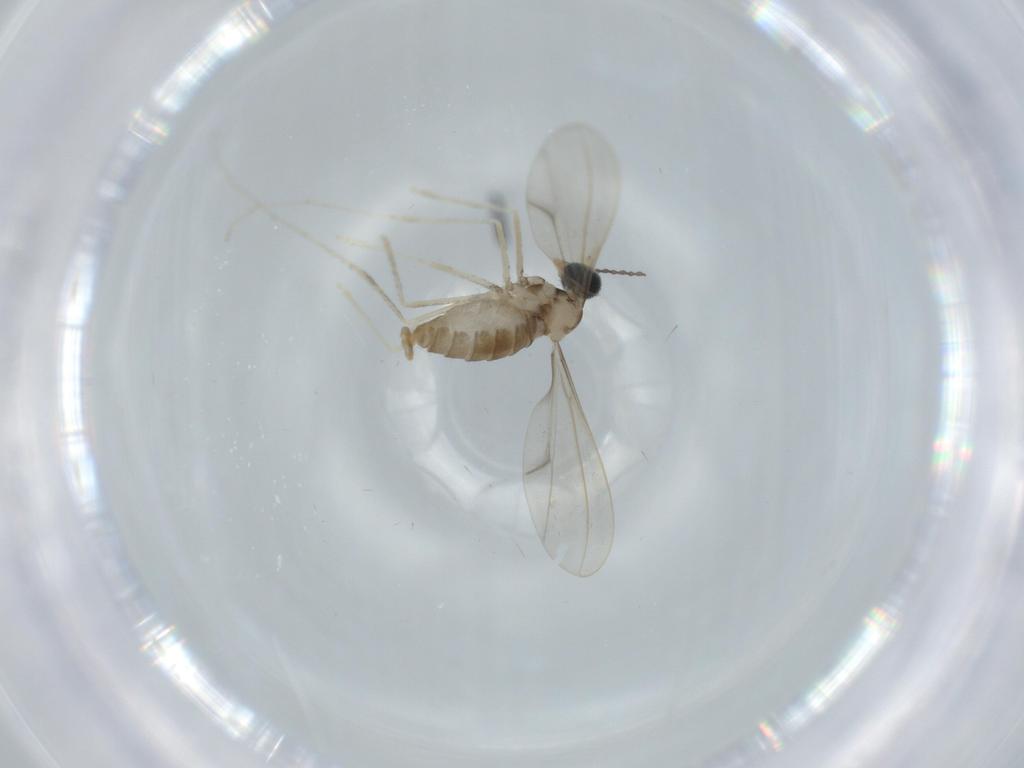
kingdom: Animalia
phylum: Arthropoda
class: Insecta
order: Diptera
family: Cecidomyiidae
